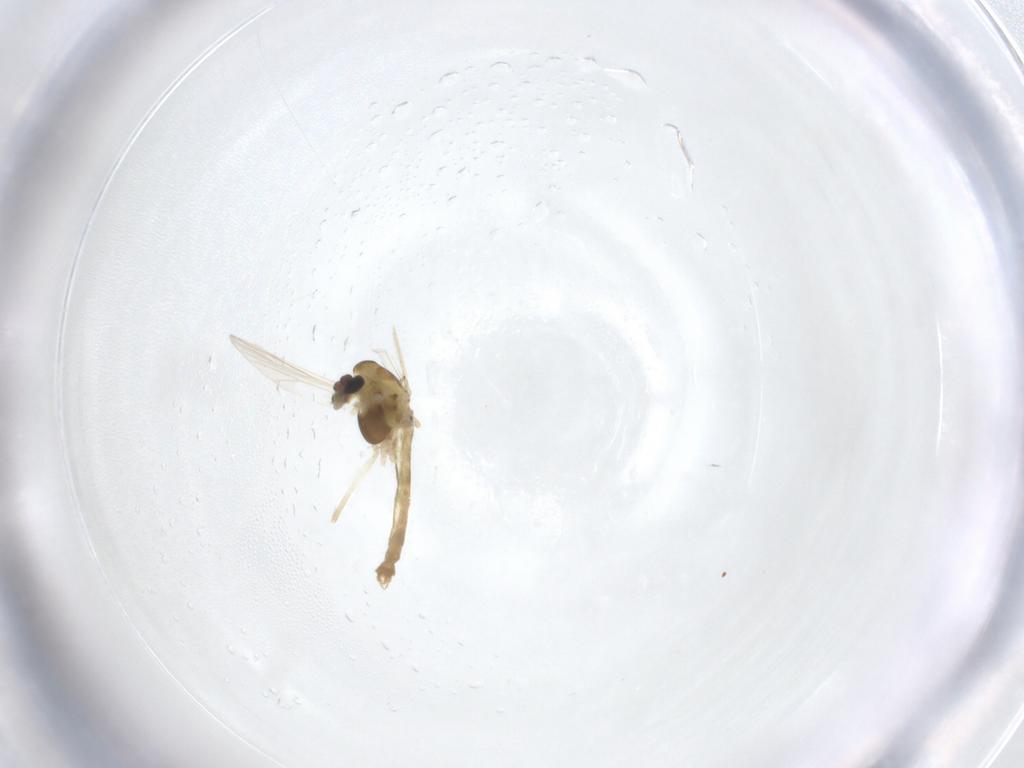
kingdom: Animalia
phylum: Arthropoda
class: Insecta
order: Diptera
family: Chironomidae
